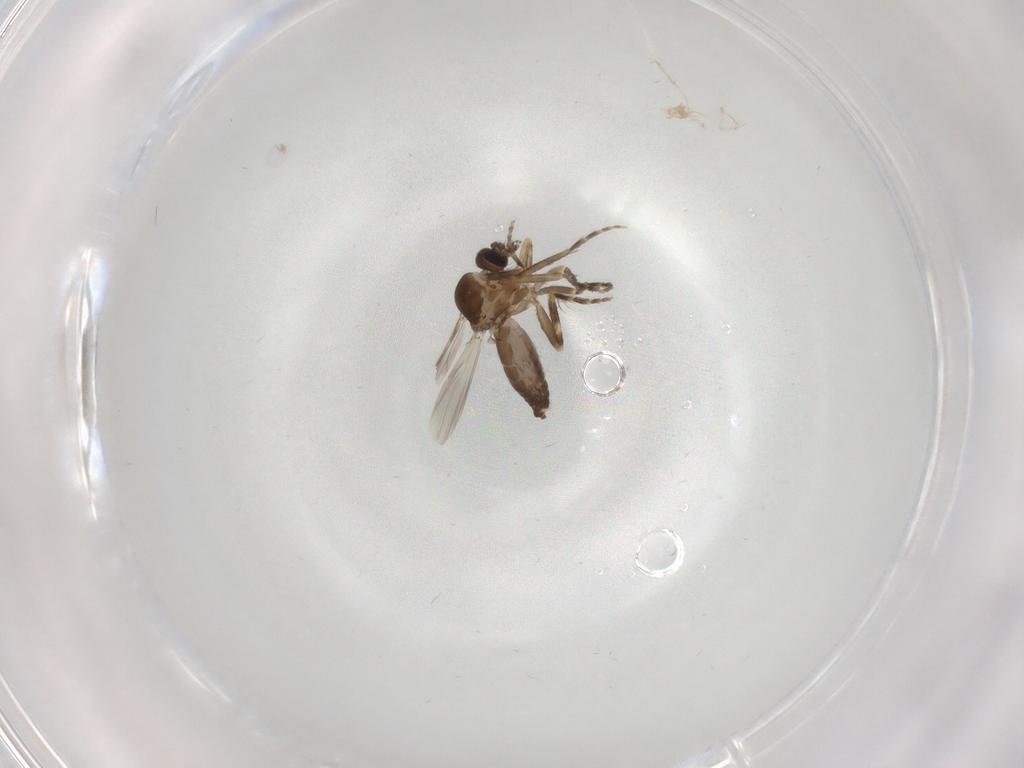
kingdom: Animalia
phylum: Arthropoda
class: Insecta
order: Diptera
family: Ceratopogonidae
